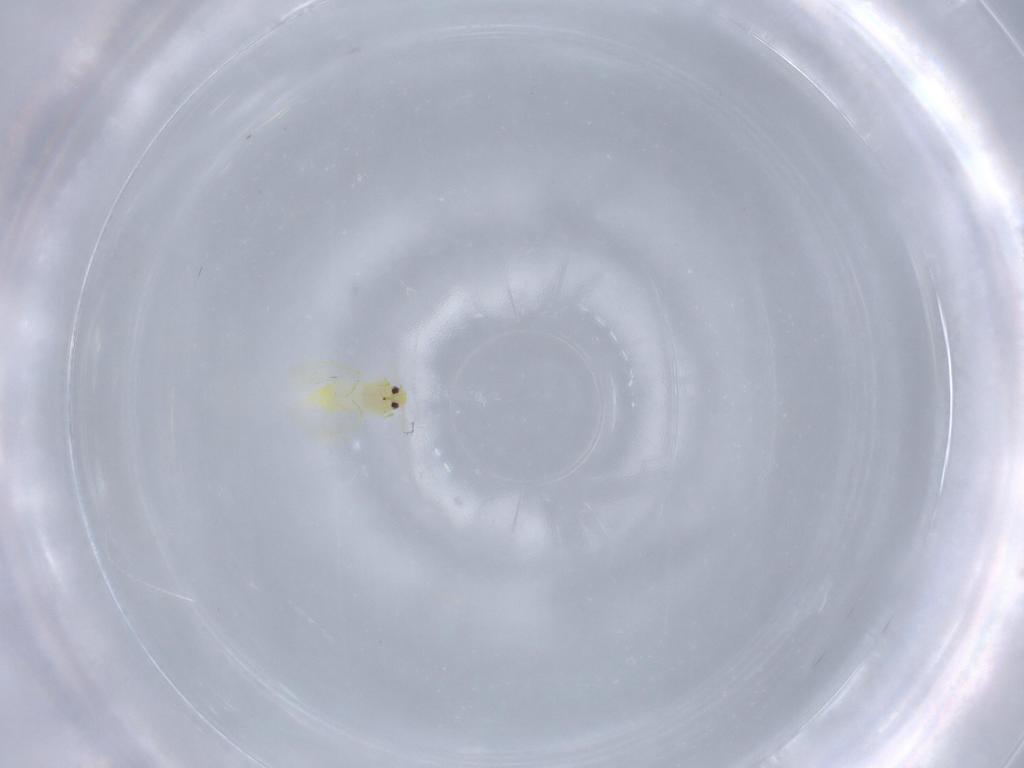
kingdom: Animalia
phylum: Arthropoda
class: Insecta
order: Hemiptera
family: Aleyrodidae
